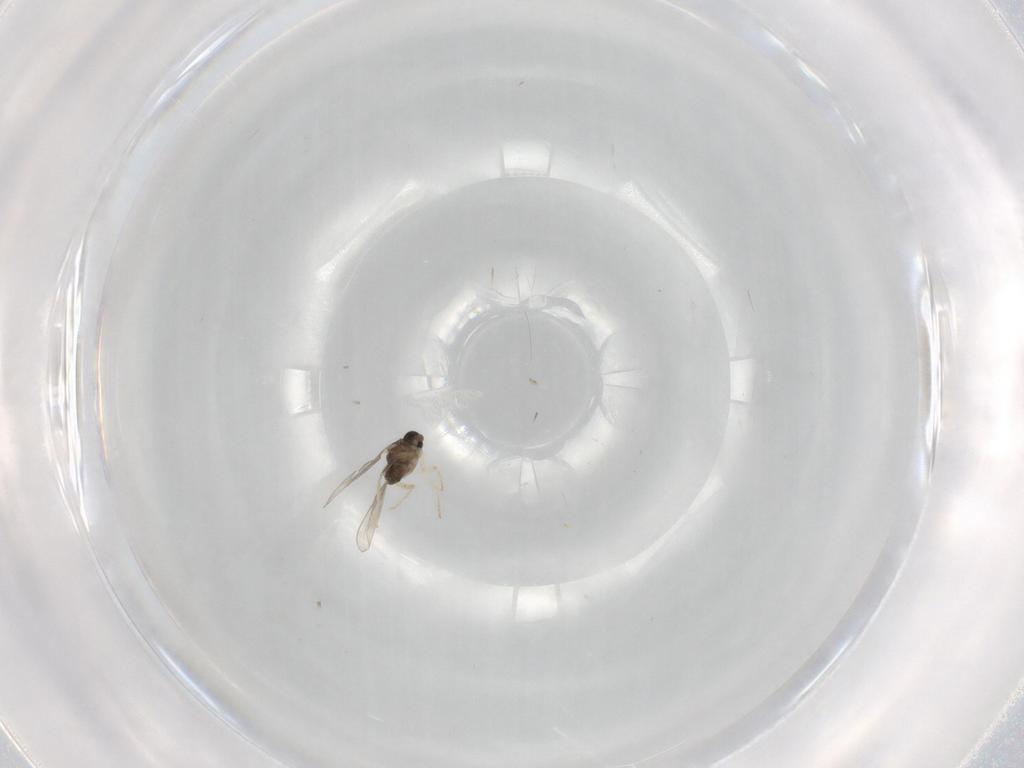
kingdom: Animalia
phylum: Arthropoda
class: Insecta
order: Diptera
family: Cecidomyiidae
